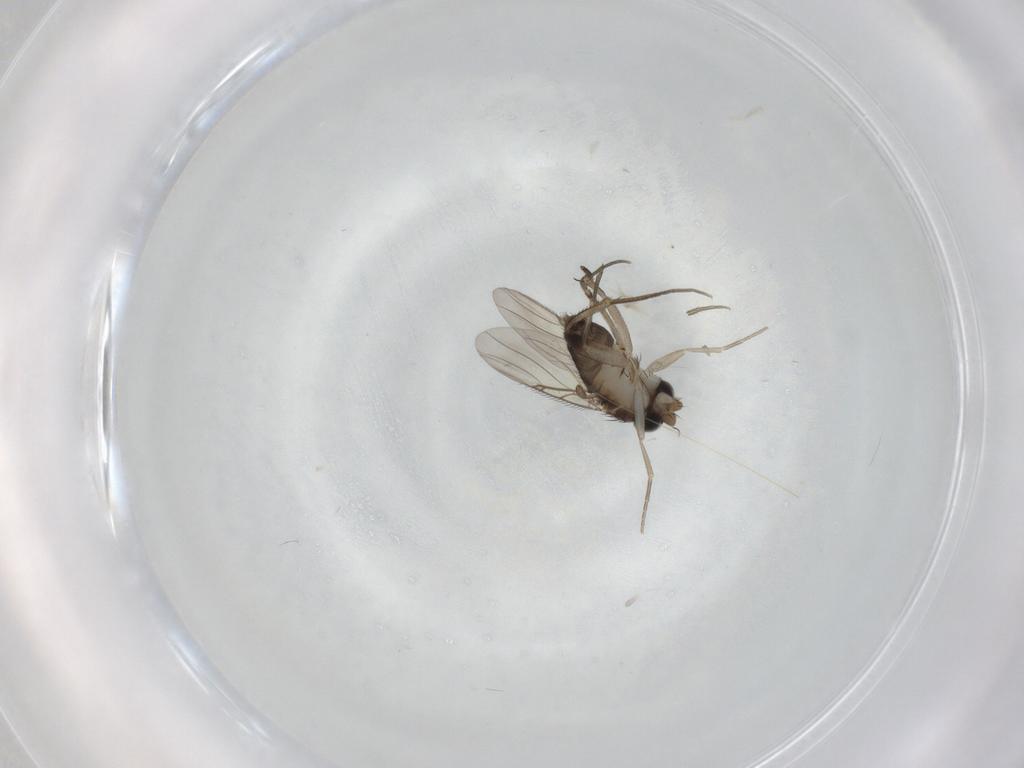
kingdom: Animalia
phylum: Arthropoda
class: Insecta
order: Diptera
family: Phoridae
